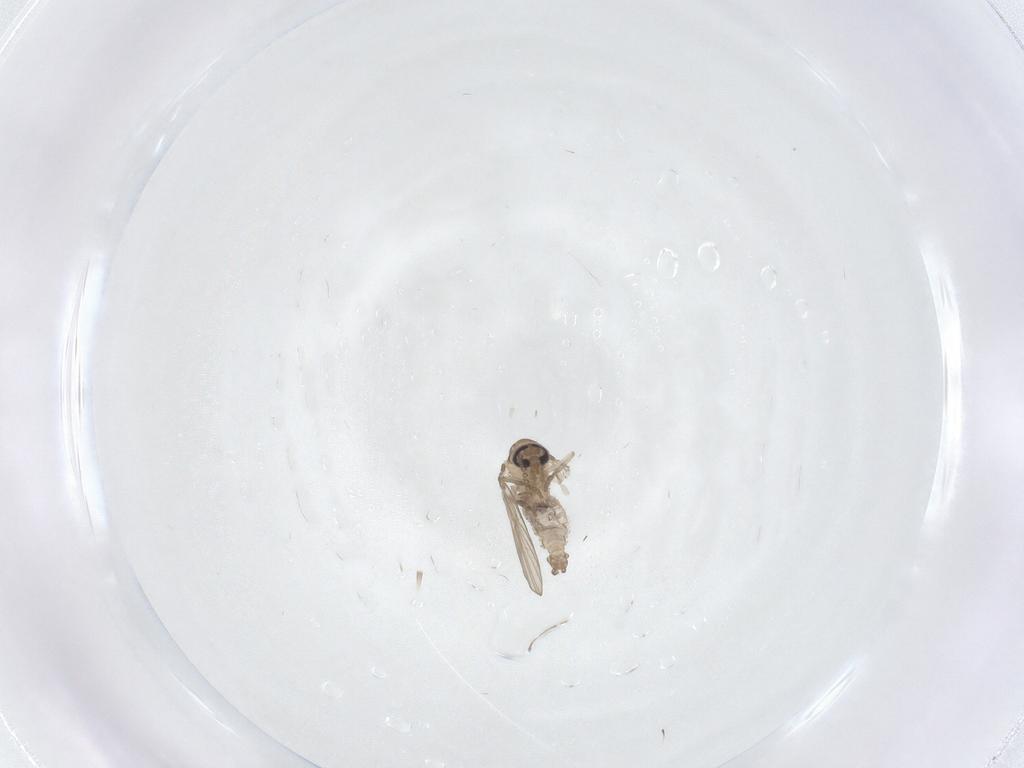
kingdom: Animalia
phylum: Arthropoda
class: Insecta
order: Diptera
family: Psychodidae
